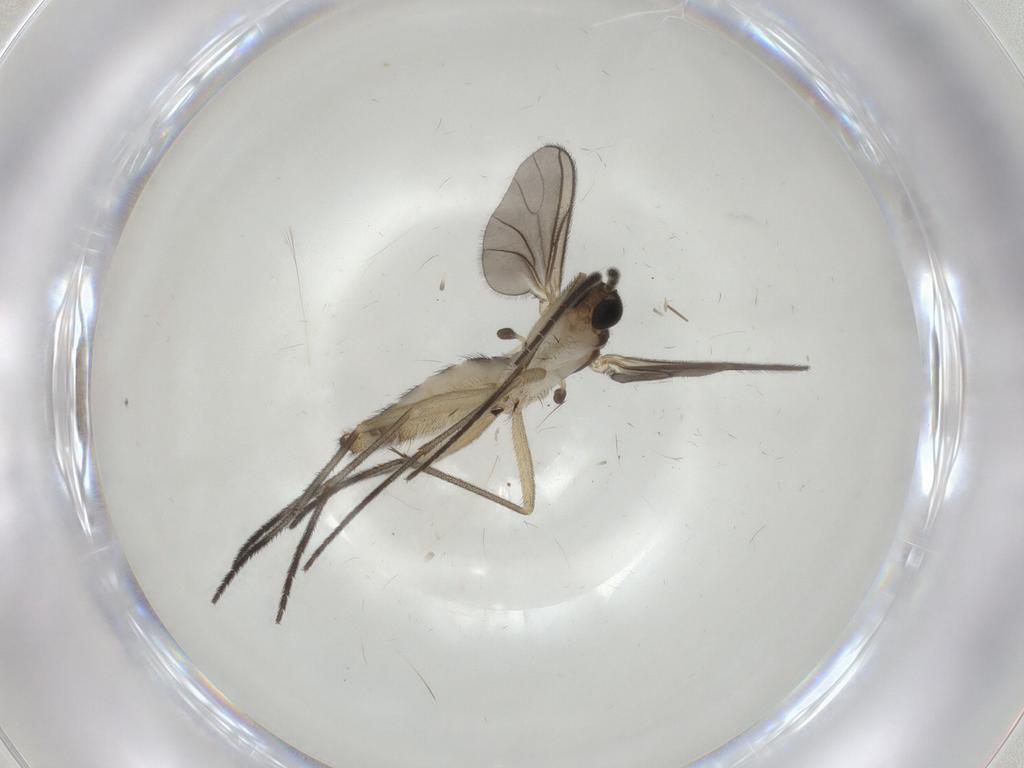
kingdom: Animalia
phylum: Arthropoda
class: Insecta
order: Diptera
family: Sciaridae
